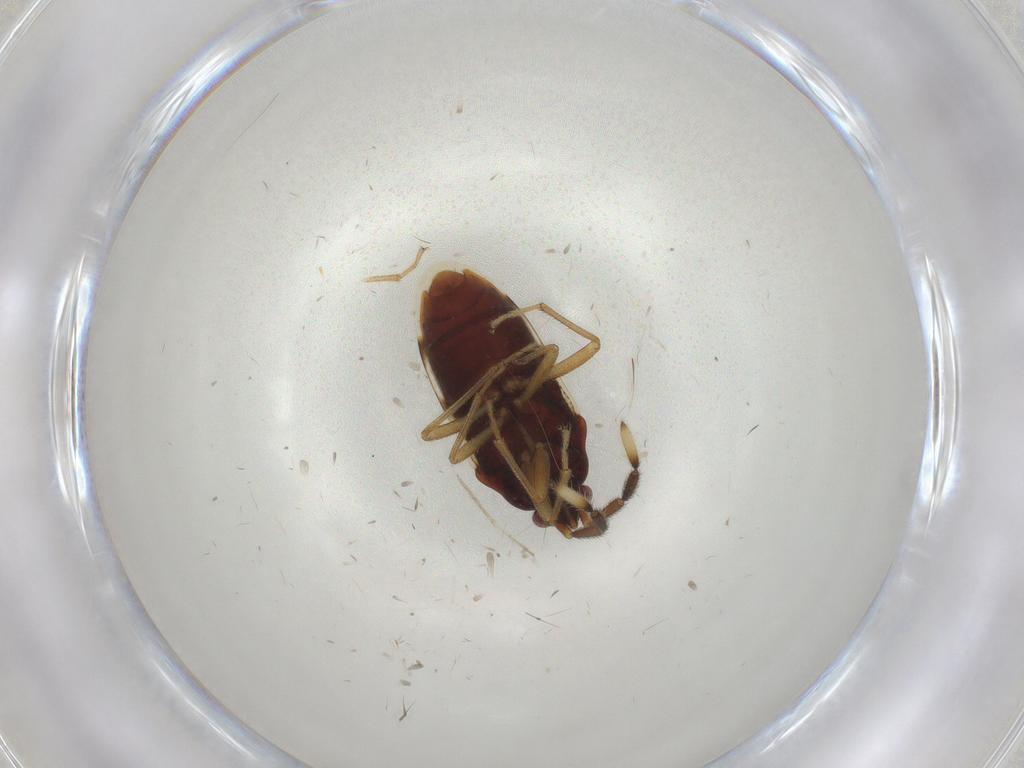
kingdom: Animalia
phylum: Arthropoda
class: Insecta
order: Hemiptera
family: Rhyparochromidae
